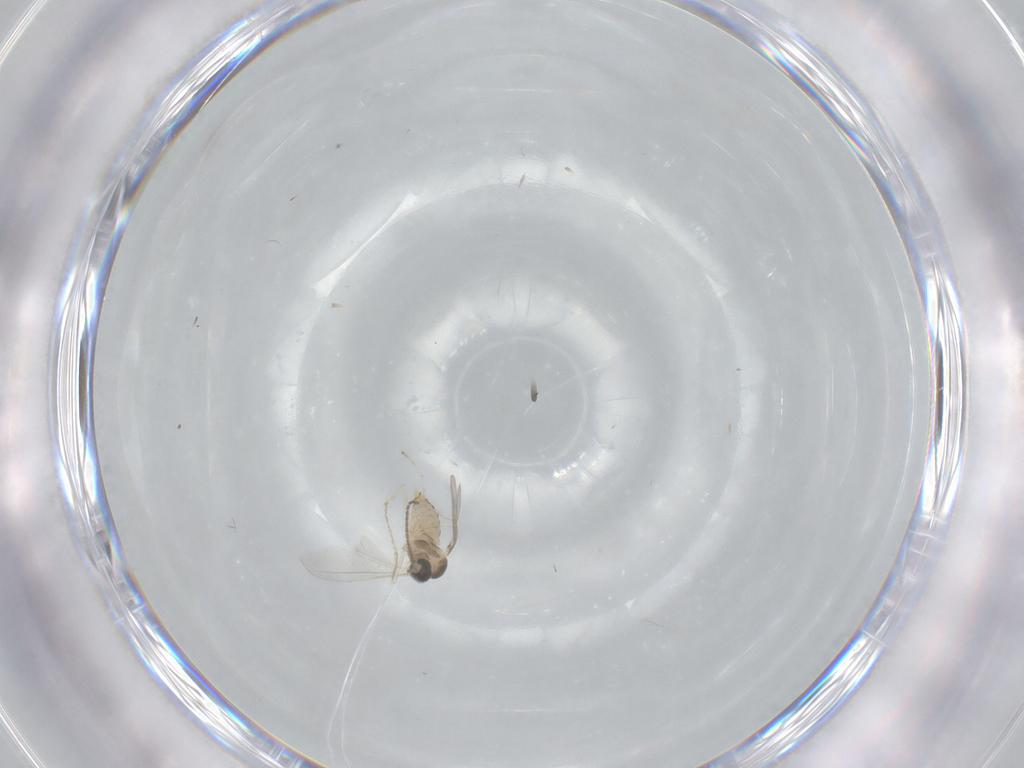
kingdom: Animalia
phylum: Arthropoda
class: Insecta
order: Diptera
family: Cecidomyiidae
